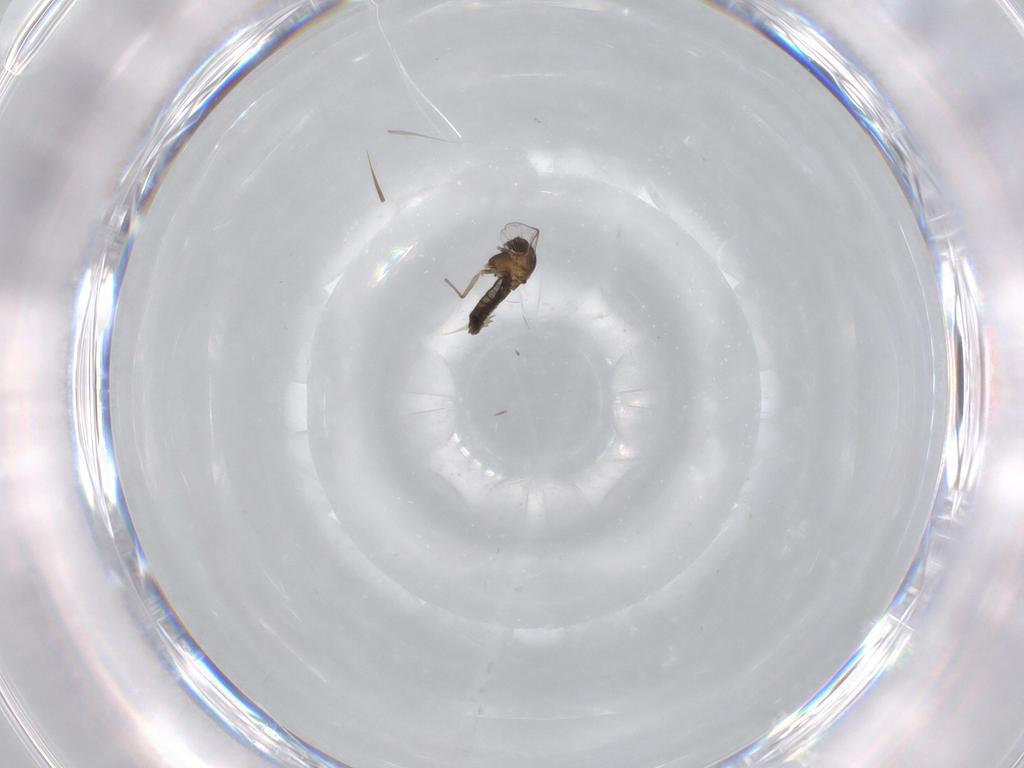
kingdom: Animalia
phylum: Arthropoda
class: Insecta
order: Diptera
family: Chironomidae
